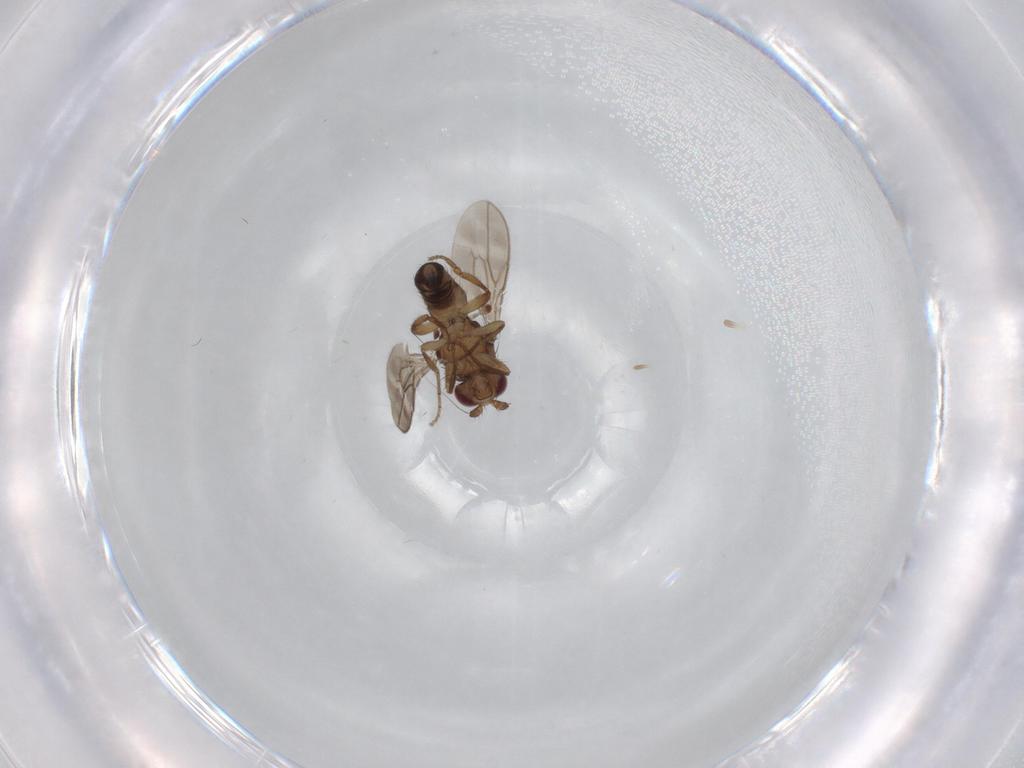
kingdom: Animalia
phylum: Arthropoda
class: Insecta
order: Diptera
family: Sphaeroceridae
